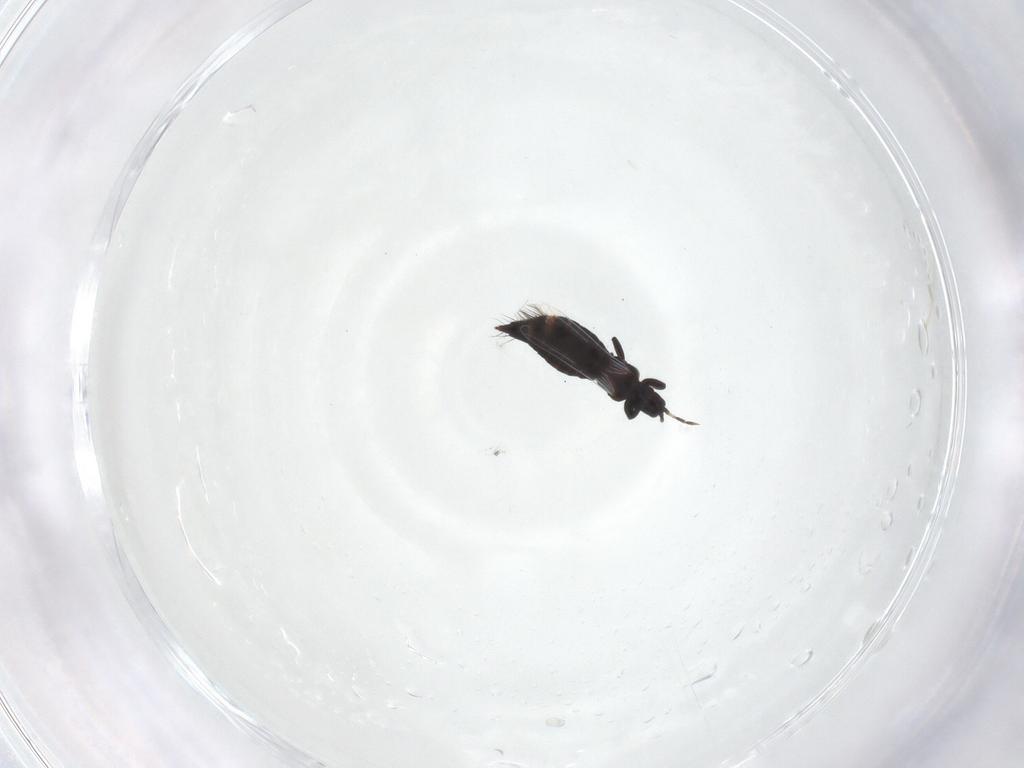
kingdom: Animalia
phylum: Arthropoda
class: Insecta
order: Thysanoptera
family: Aeolothripidae
